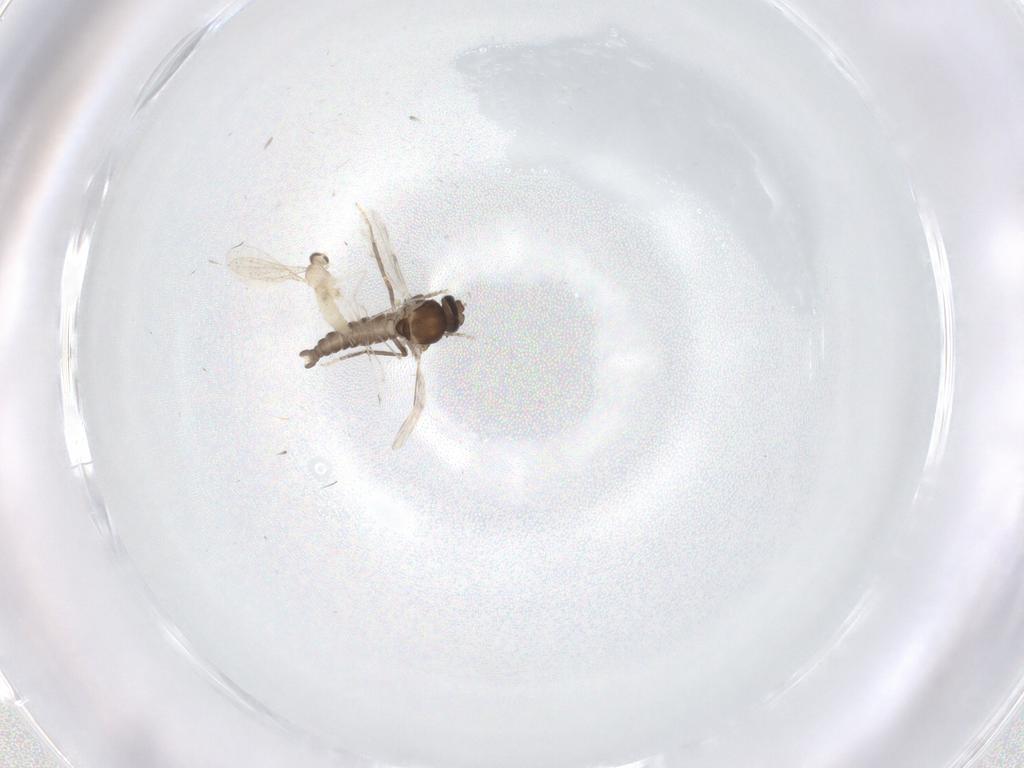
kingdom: Animalia
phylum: Arthropoda
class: Insecta
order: Diptera
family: Ceratopogonidae
